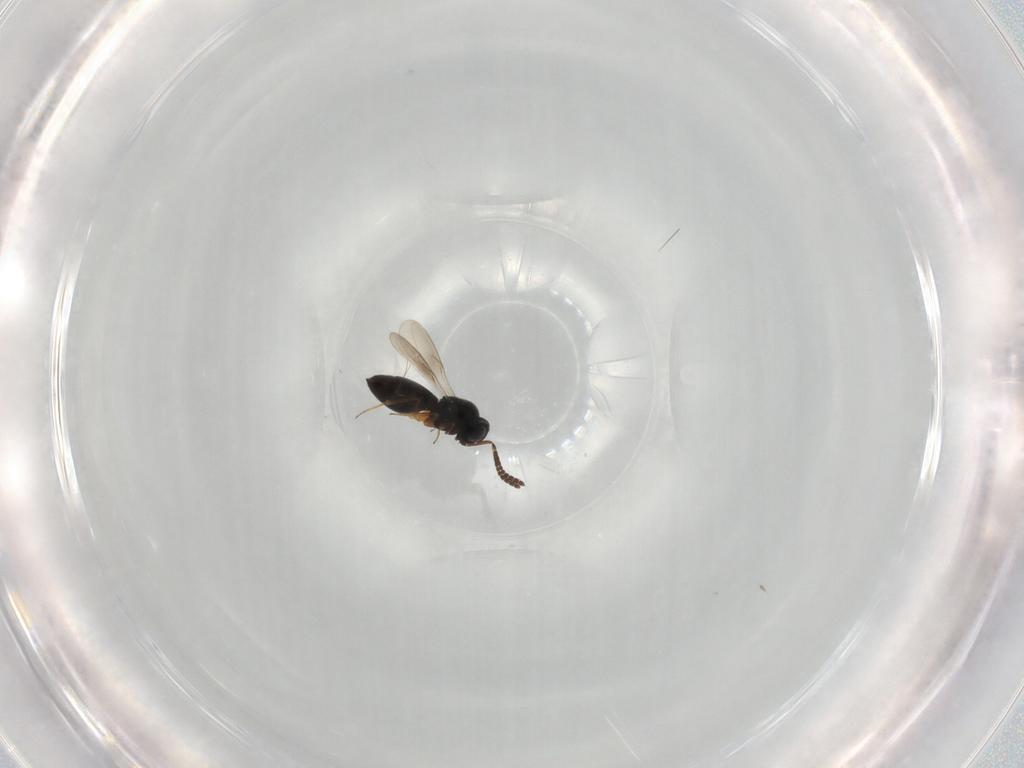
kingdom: Animalia
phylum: Arthropoda
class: Insecta
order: Hymenoptera
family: Scelionidae
